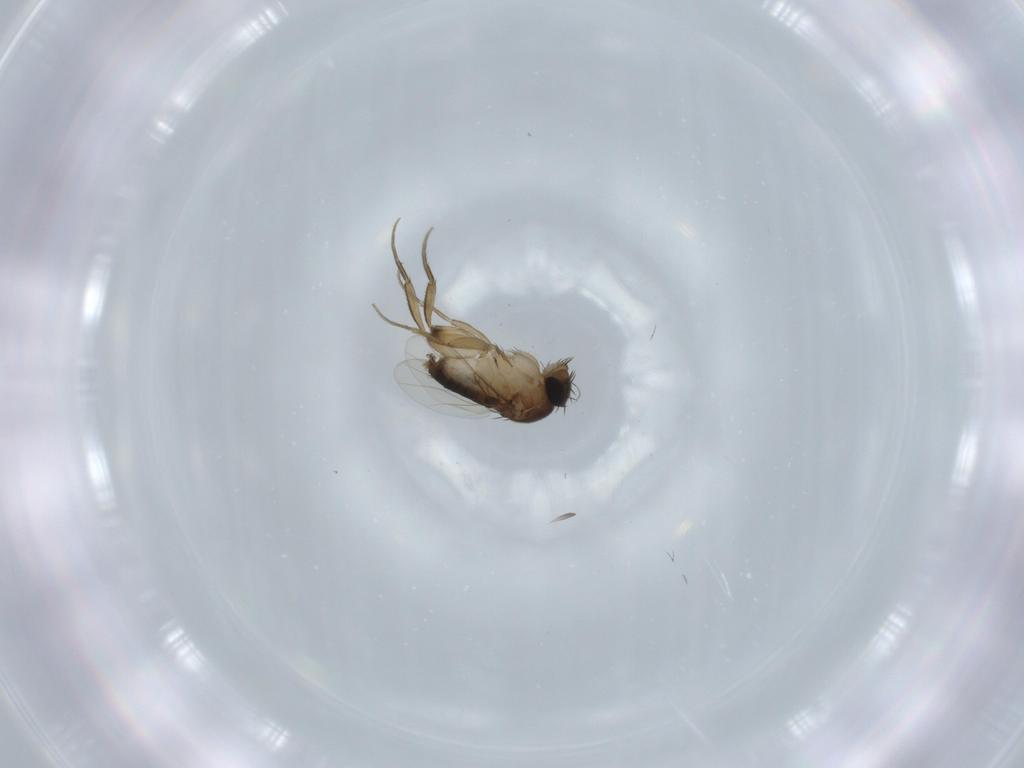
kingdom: Animalia
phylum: Arthropoda
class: Insecta
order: Diptera
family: Phoridae
